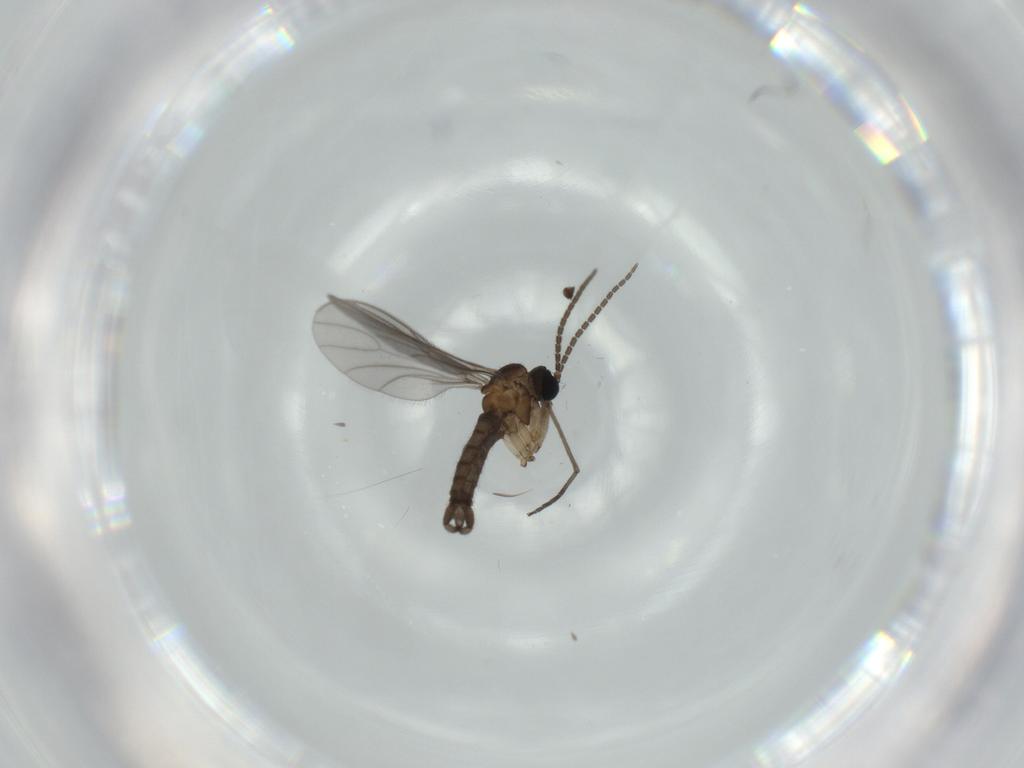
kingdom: Animalia
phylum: Arthropoda
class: Insecta
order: Diptera
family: Sciaridae
